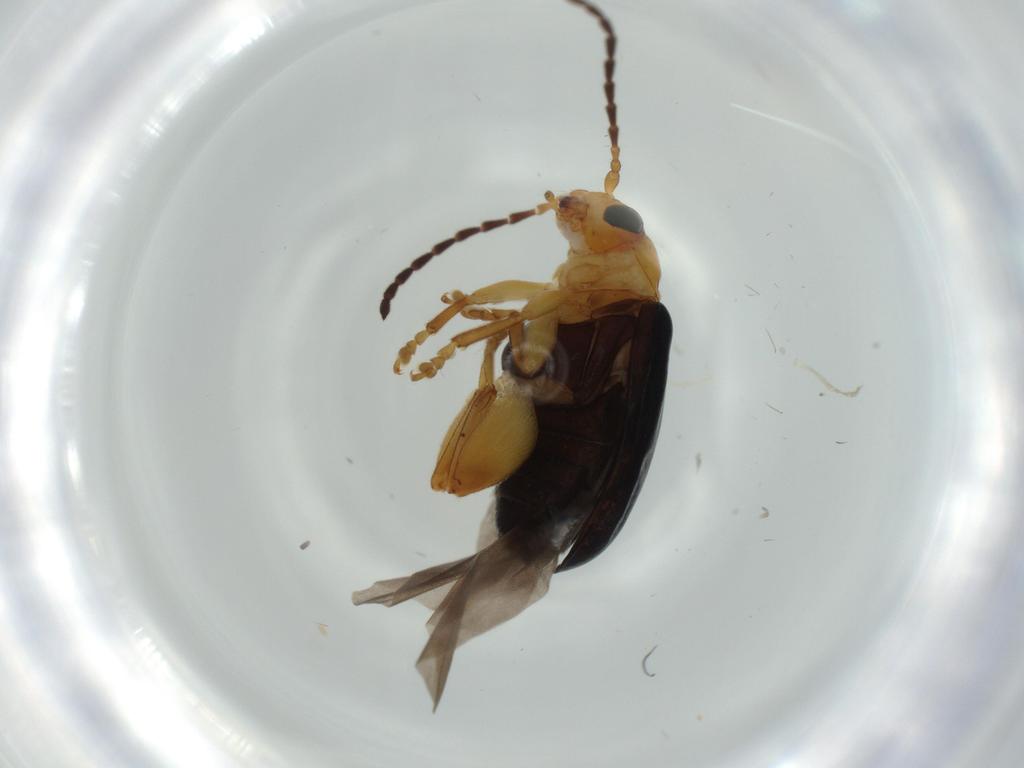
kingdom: Animalia
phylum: Arthropoda
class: Insecta
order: Coleoptera
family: Chrysomelidae
